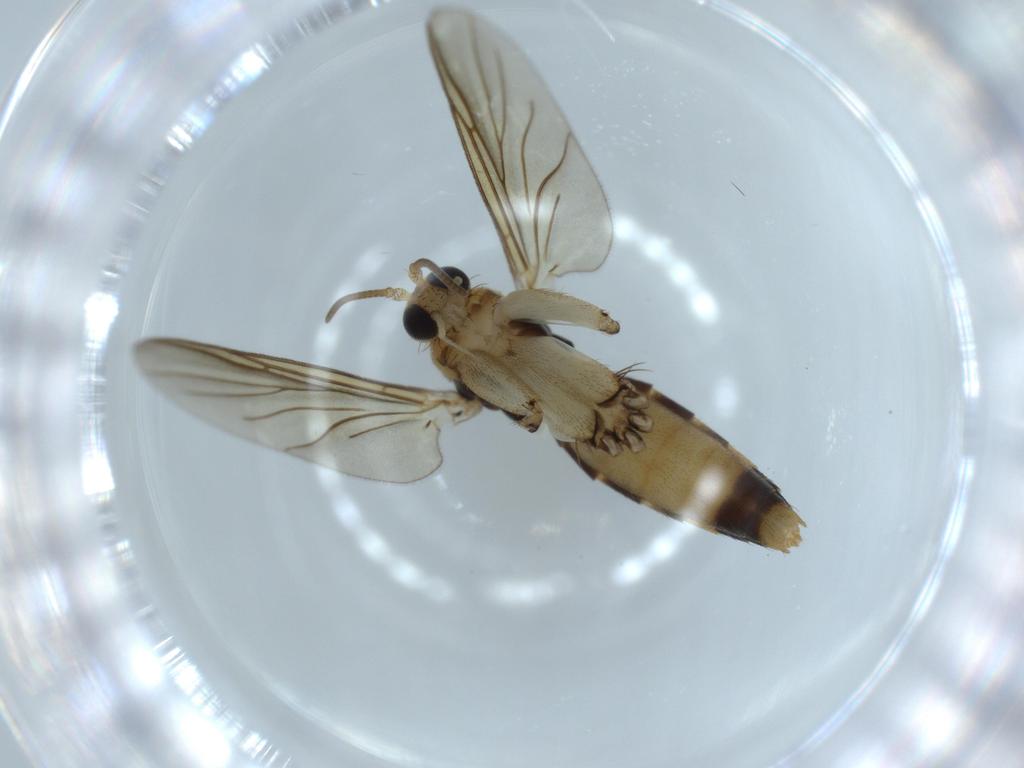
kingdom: Animalia
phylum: Arthropoda
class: Insecta
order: Diptera
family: Mycetophilidae
